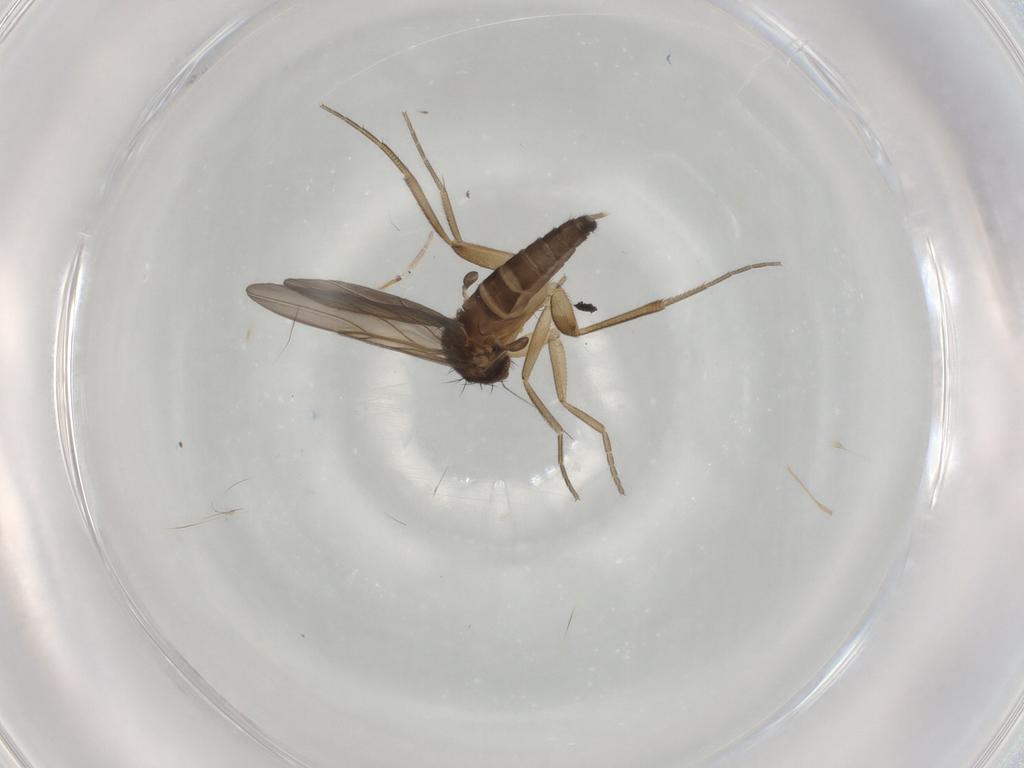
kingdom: Animalia
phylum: Arthropoda
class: Insecta
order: Diptera
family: Phoridae
